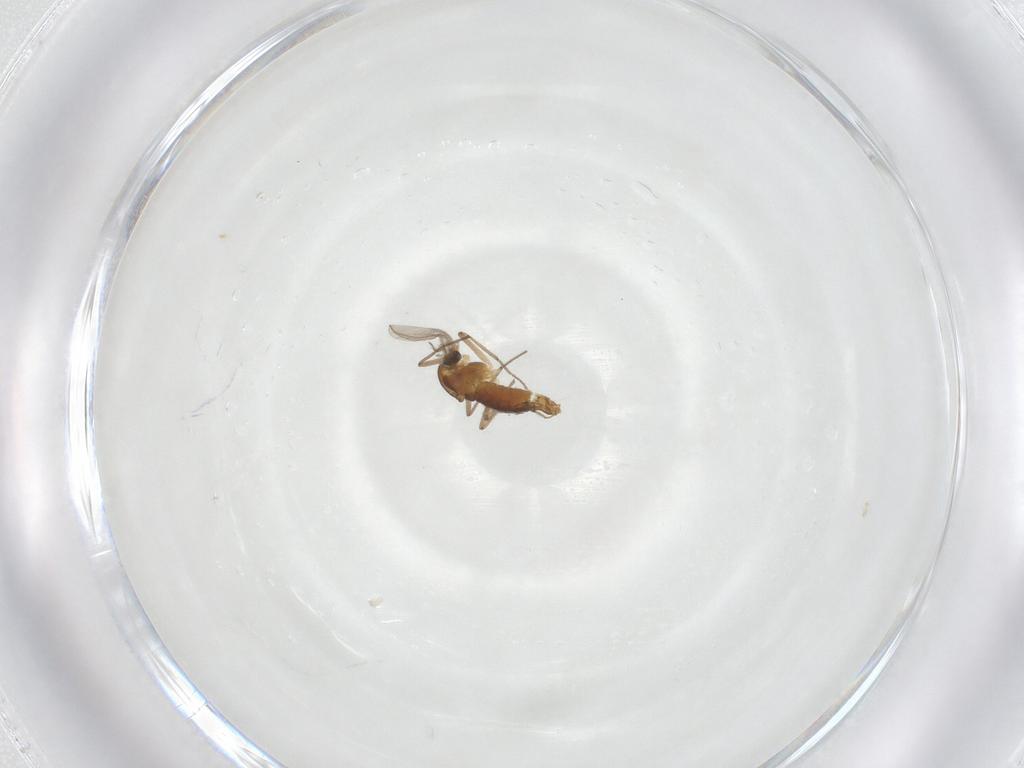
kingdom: Animalia
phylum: Arthropoda
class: Insecta
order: Diptera
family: Chironomidae
